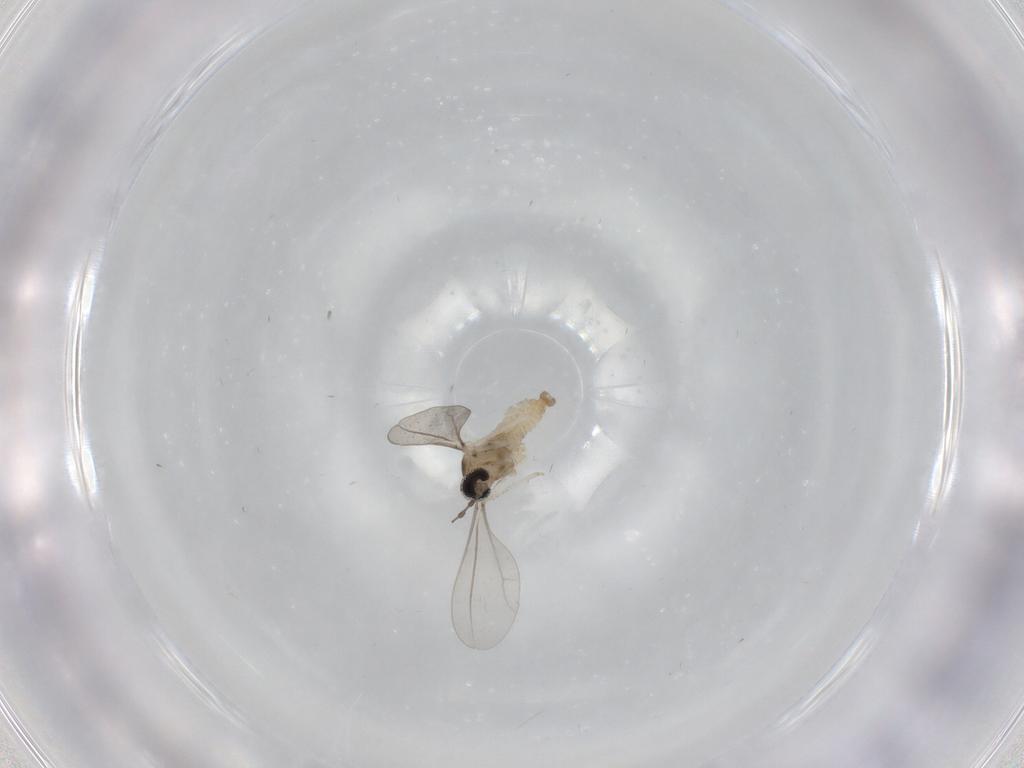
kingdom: Animalia
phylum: Arthropoda
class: Insecta
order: Diptera
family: Cecidomyiidae
